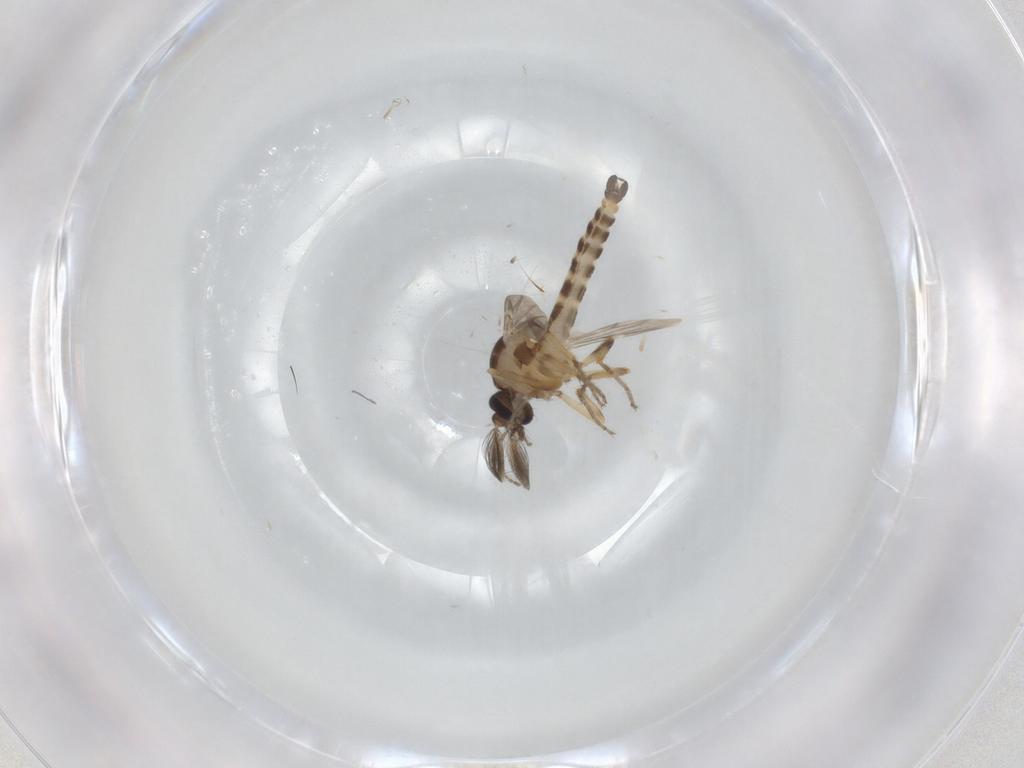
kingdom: Animalia
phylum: Arthropoda
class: Insecta
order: Diptera
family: Ceratopogonidae
